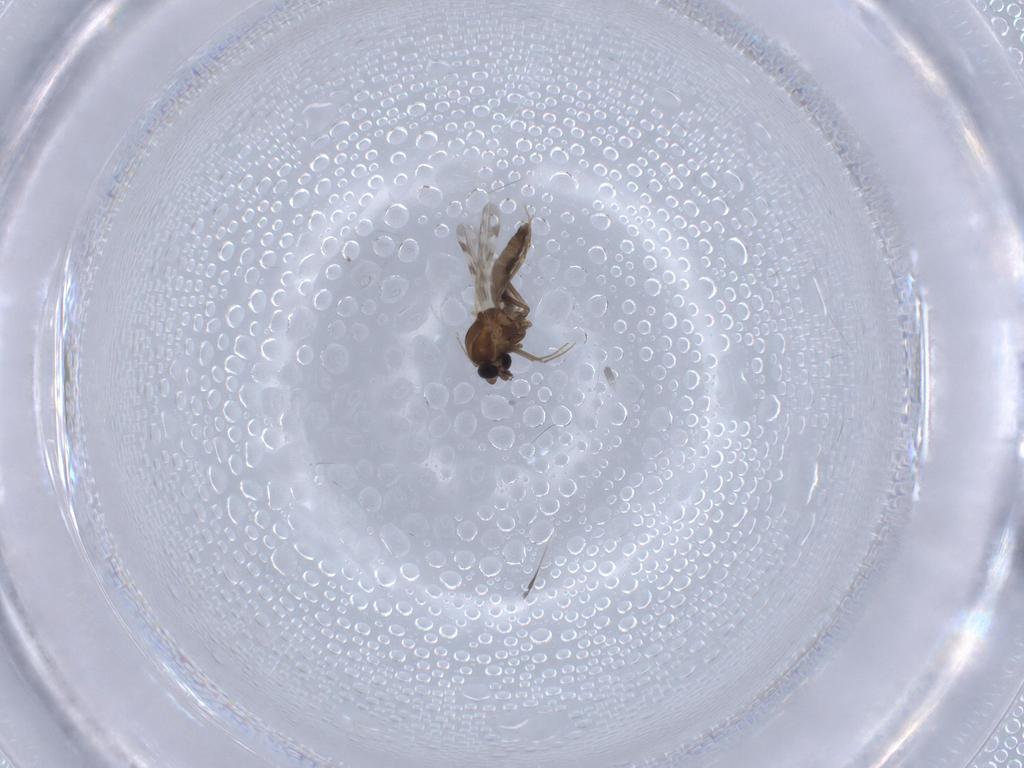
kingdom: Animalia
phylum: Arthropoda
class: Insecta
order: Diptera
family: Ceratopogonidae
